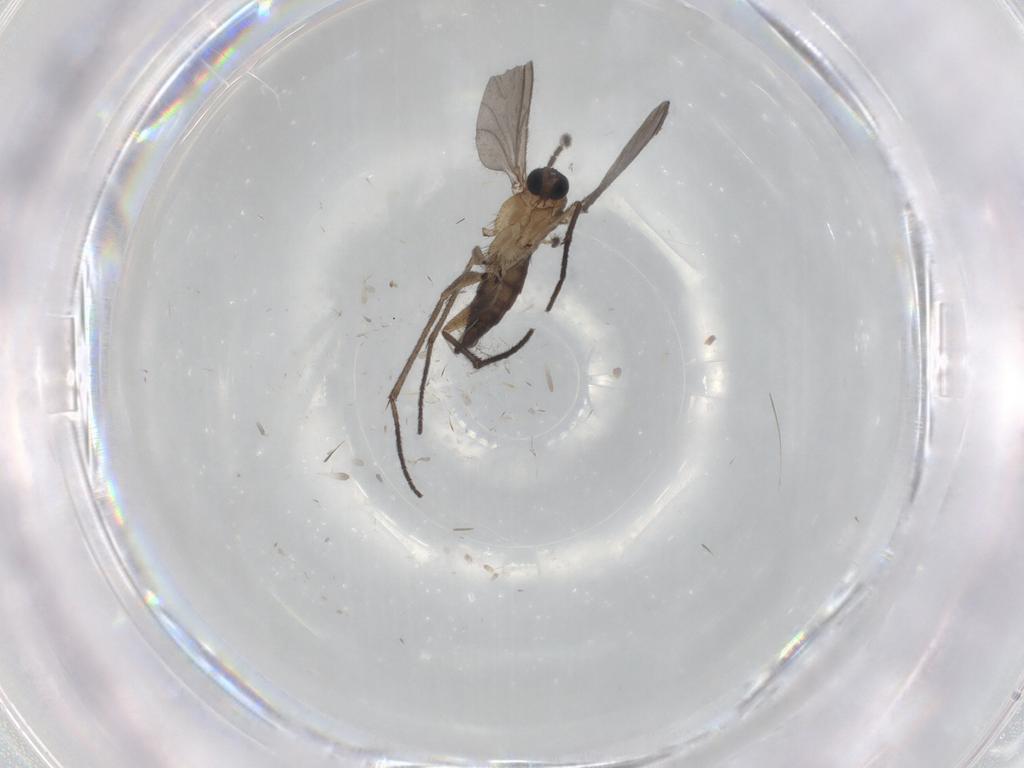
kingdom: Animalia
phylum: Arthropoda
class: Insecta
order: Diptera
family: Sciaridae
